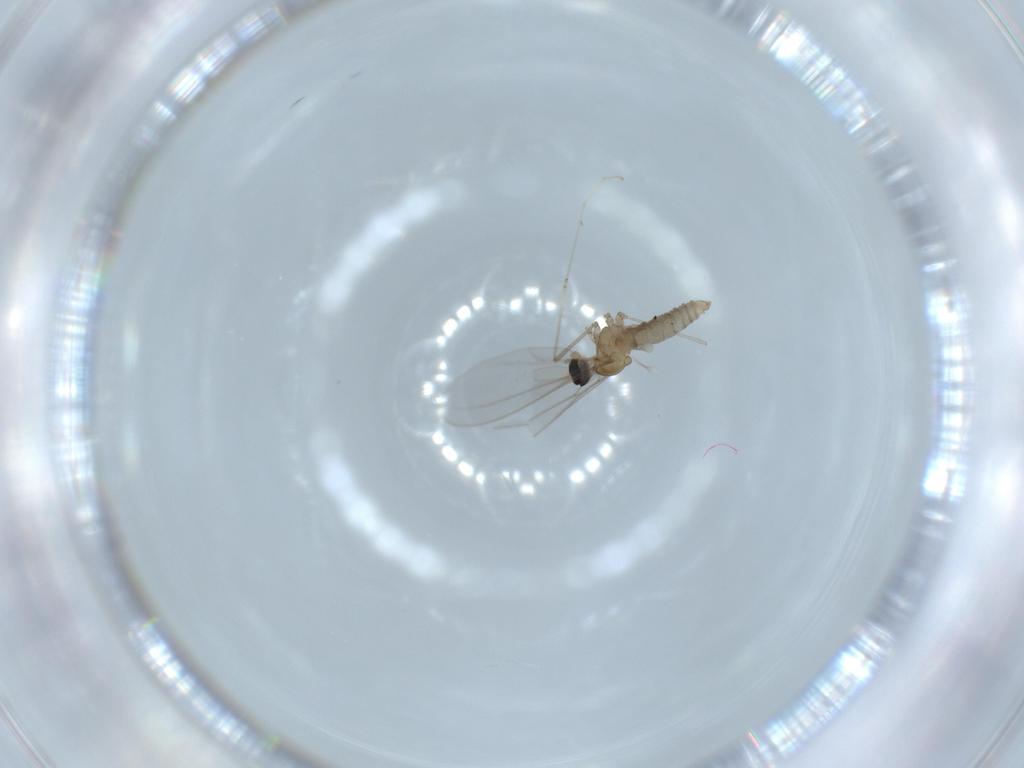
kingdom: Animalia
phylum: Arthropoda
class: Insecta
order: Diptera
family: Cecidomyiidae
